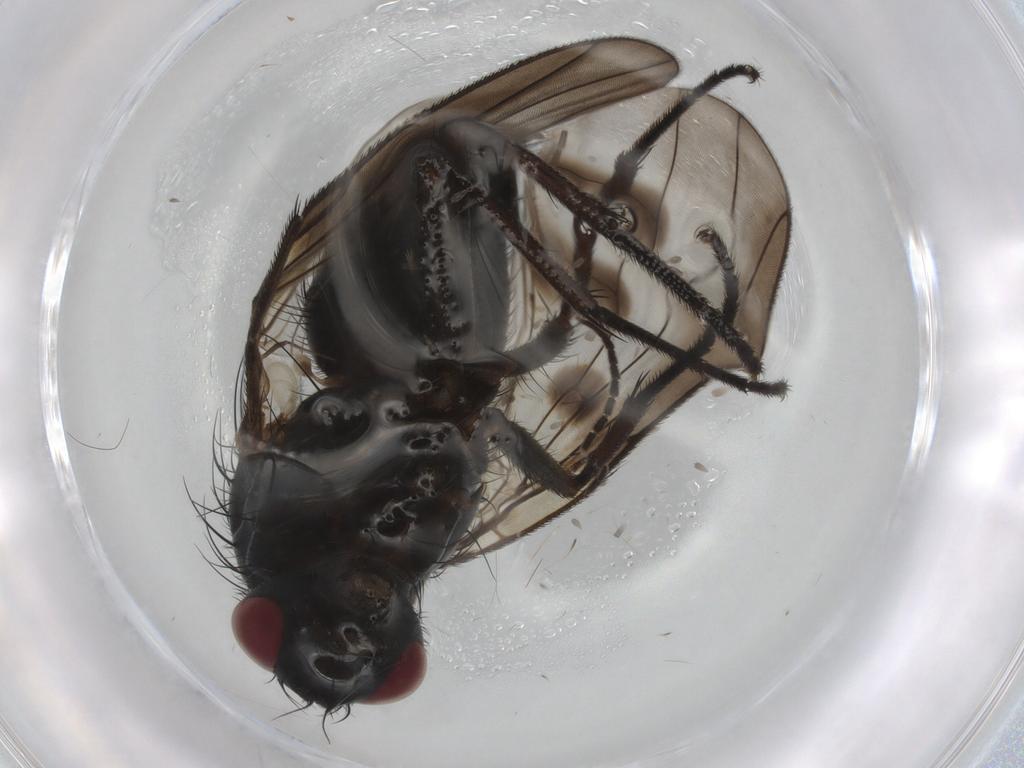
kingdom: Animalia
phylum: Arthropoda
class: Insecta
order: Diptera
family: Muscidae
